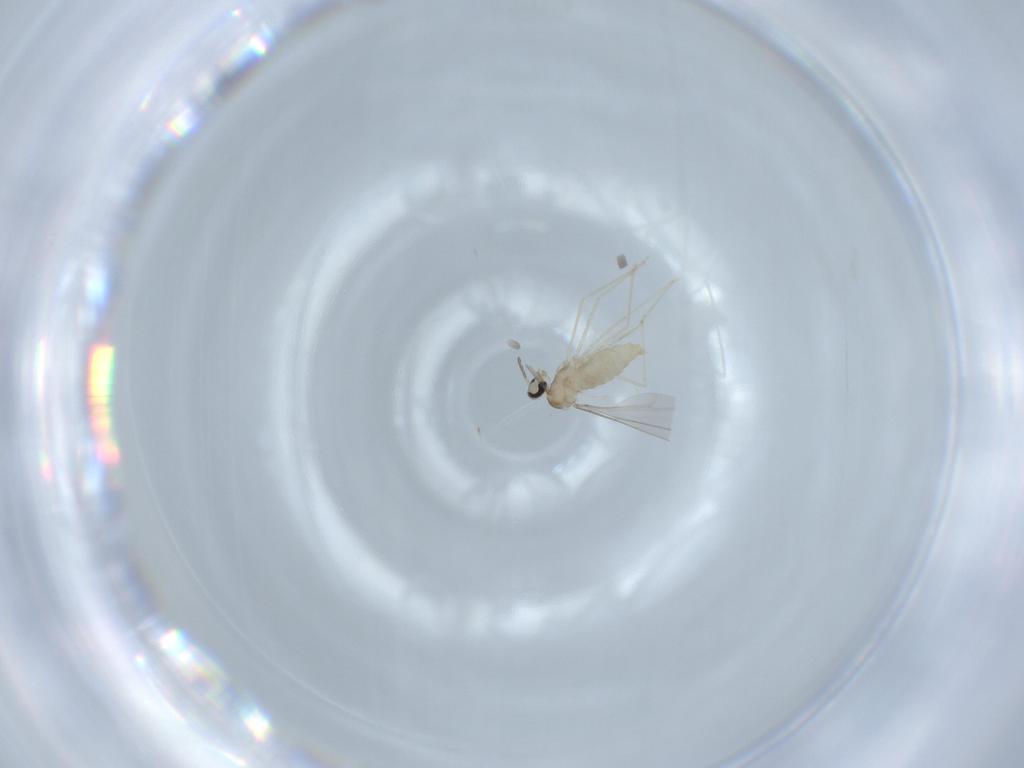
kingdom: Animalia
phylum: Arthropoda
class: Insecta
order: Diptera
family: Cecidomyiidae
